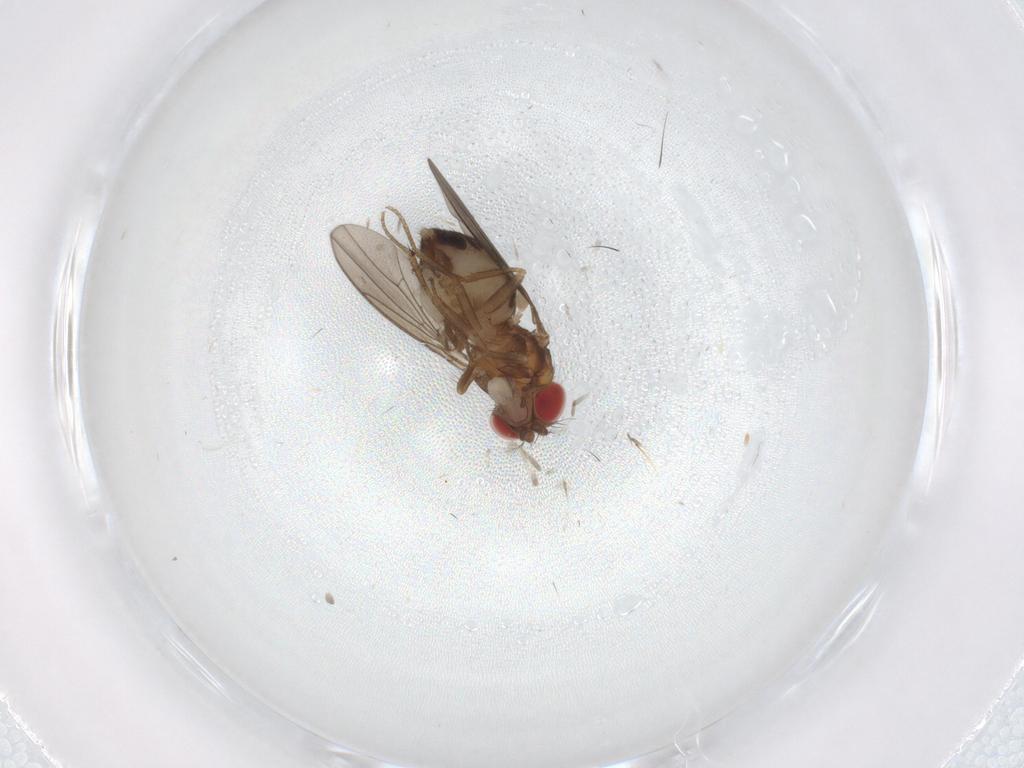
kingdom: Animalia
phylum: Arthropoda
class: Insecta
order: Diptera
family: Drosophilidae
